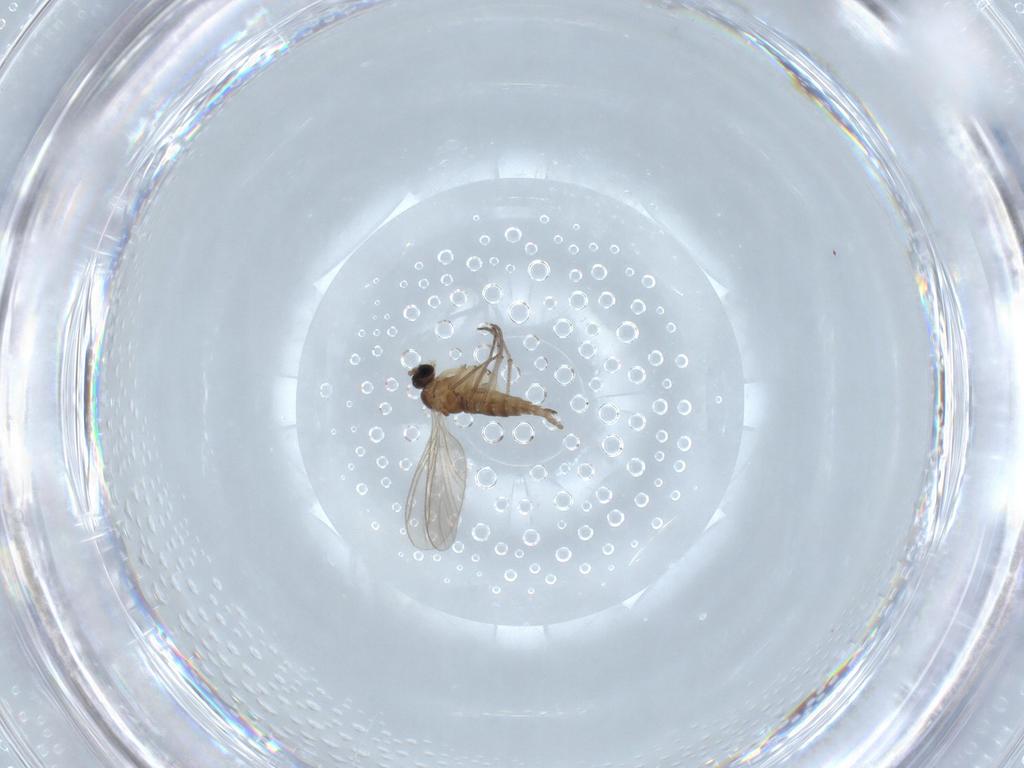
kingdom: Animalia
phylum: Arthropoda
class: Insecta
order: Diptera
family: Sciaridae
